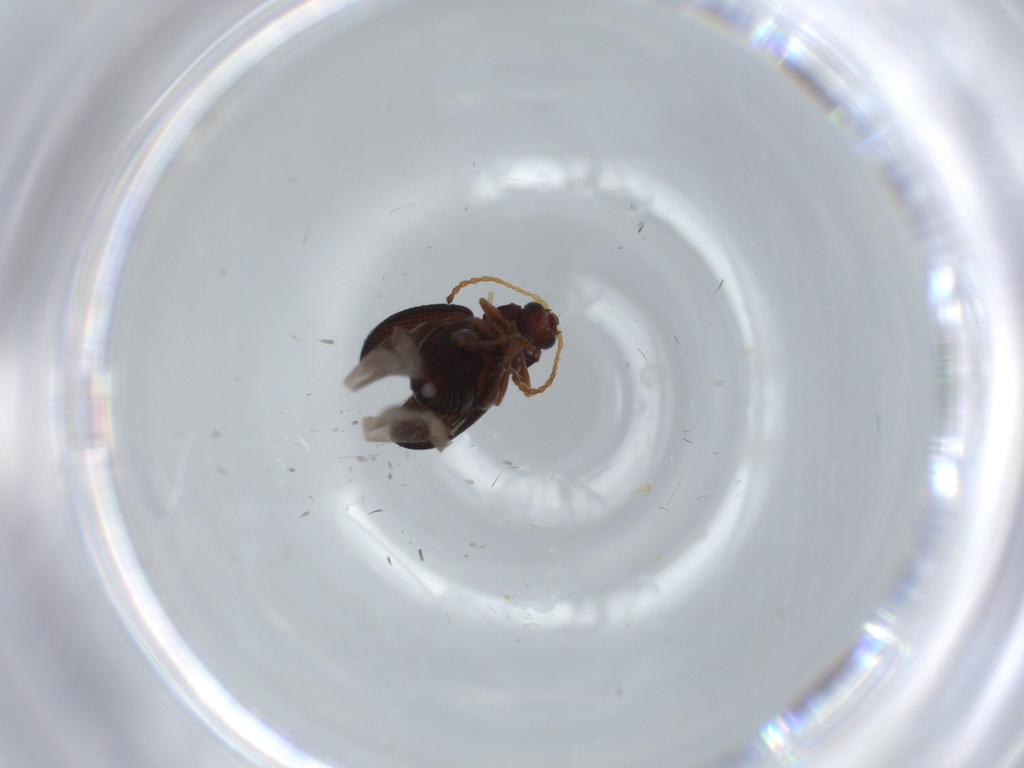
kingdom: Animalia
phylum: Arthropoda
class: Insecta
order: Coleoptera
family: Chrysomelidae
